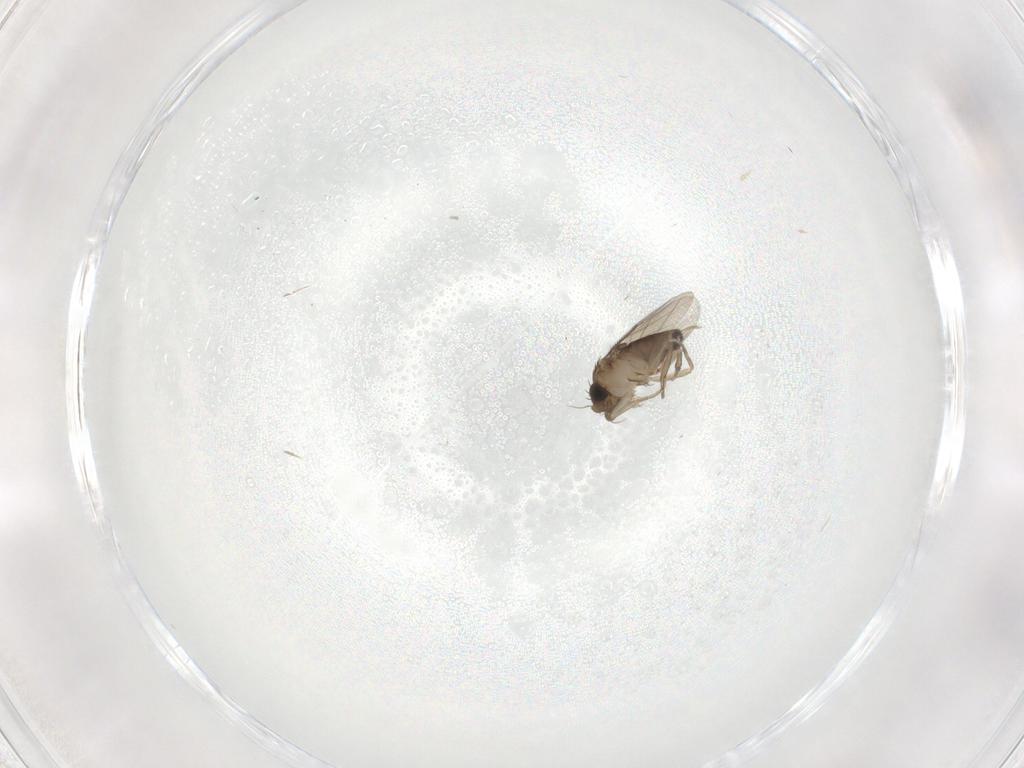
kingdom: Animalia
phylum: Arthropoda
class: Insecta
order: Diptera
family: Phoridae
